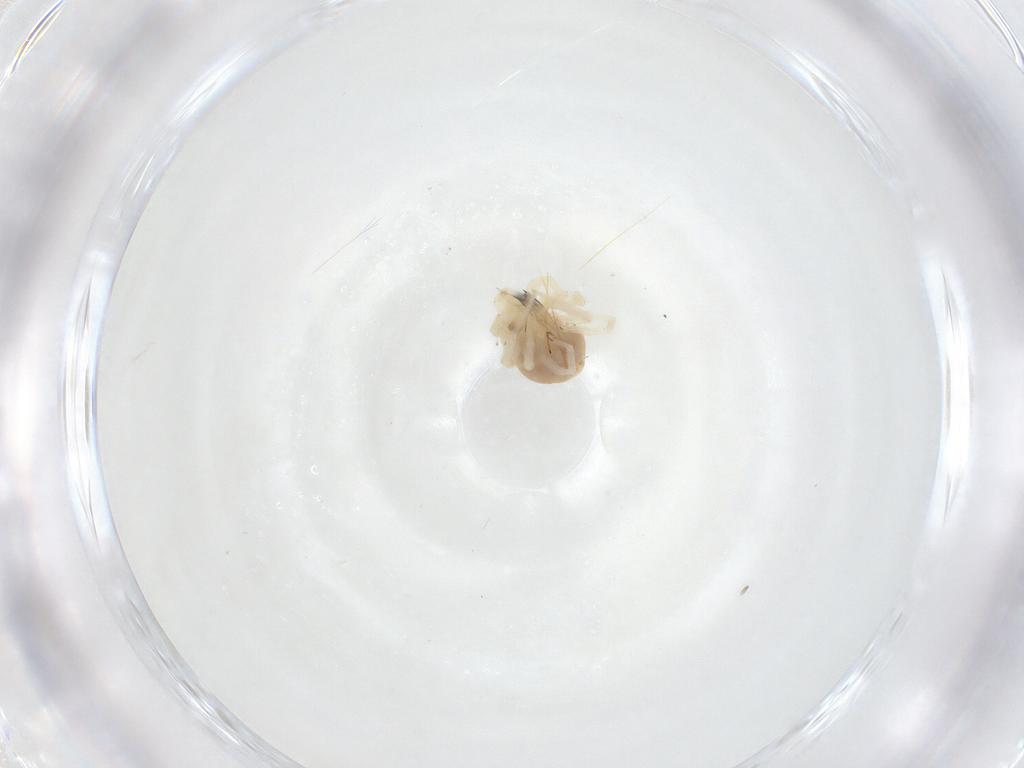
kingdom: Animalia
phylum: Arthropoda
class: Arachnida
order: Trombidiformes
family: Anystidae
